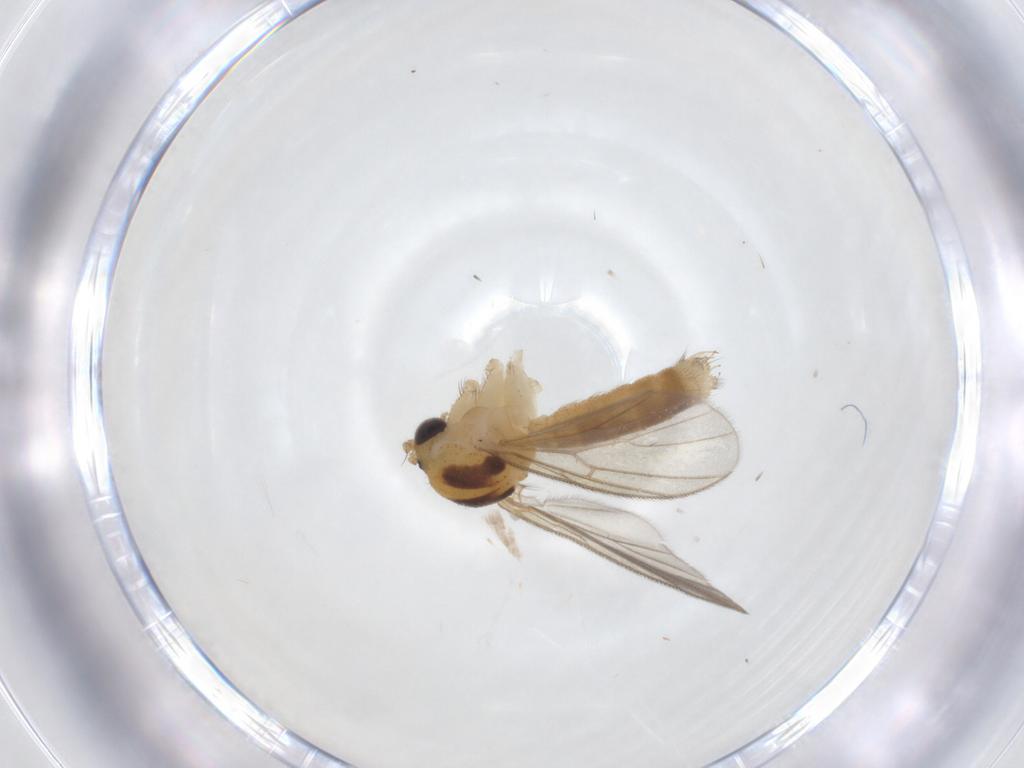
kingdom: Animalia
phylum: Arthropoda
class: Insecta
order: Diptera
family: Mycetophilidae
